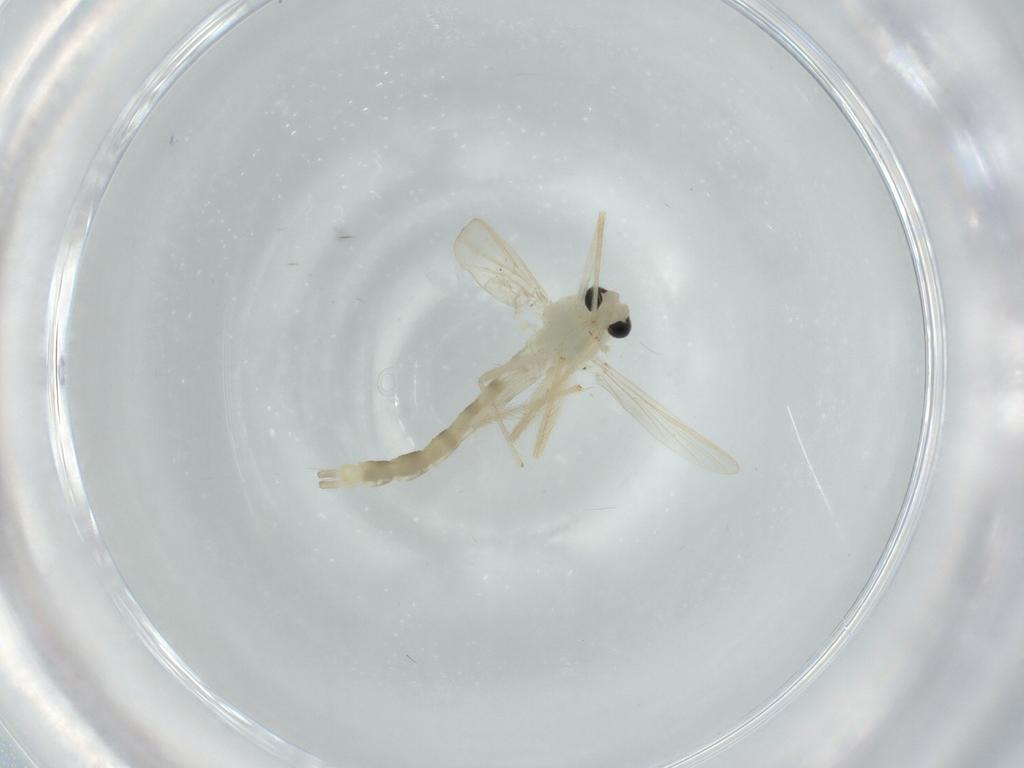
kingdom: Animalia
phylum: Arthropoda
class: Insecta
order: Diptera
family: Chironomidae
